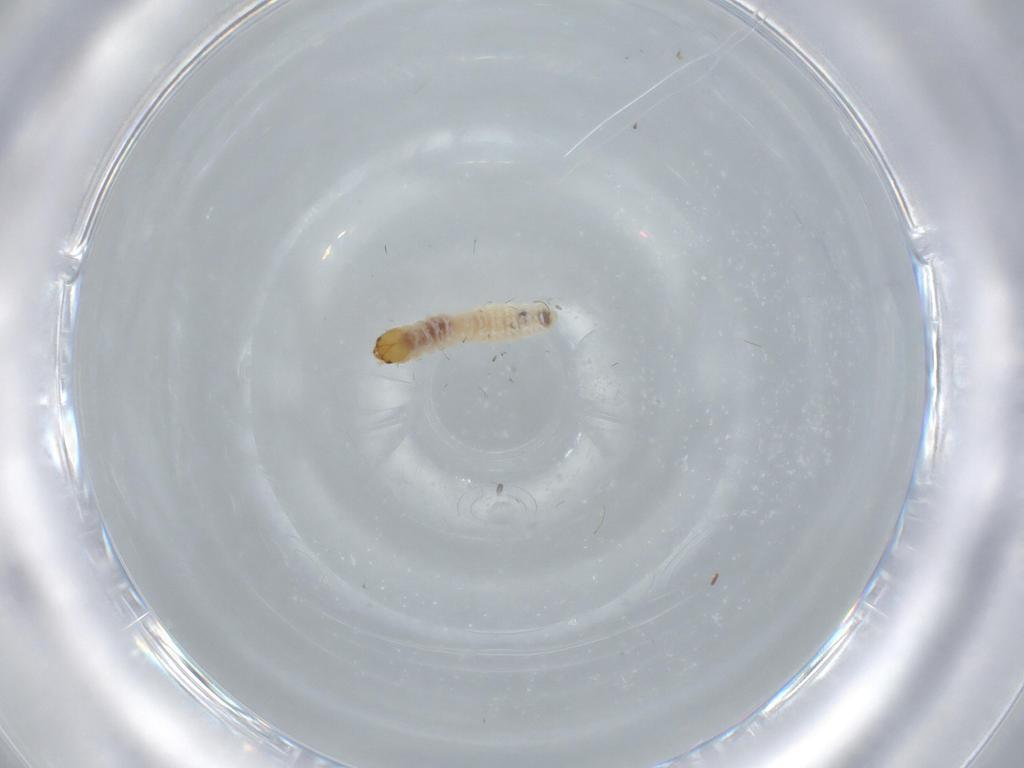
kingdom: Animalia
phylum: Arthropoda
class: Insecta
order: Lepidoptera
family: Psychidae
